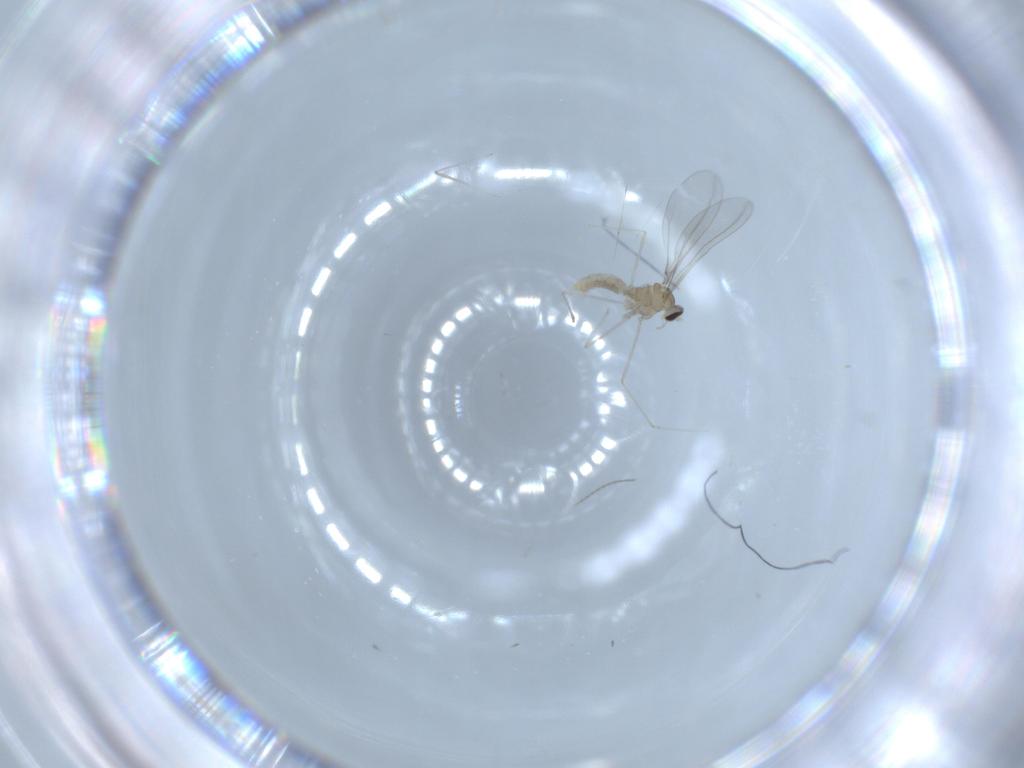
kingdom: Animalia
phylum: Arthropoda
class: Insecta
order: Diptera
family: Cecidomyiidae
